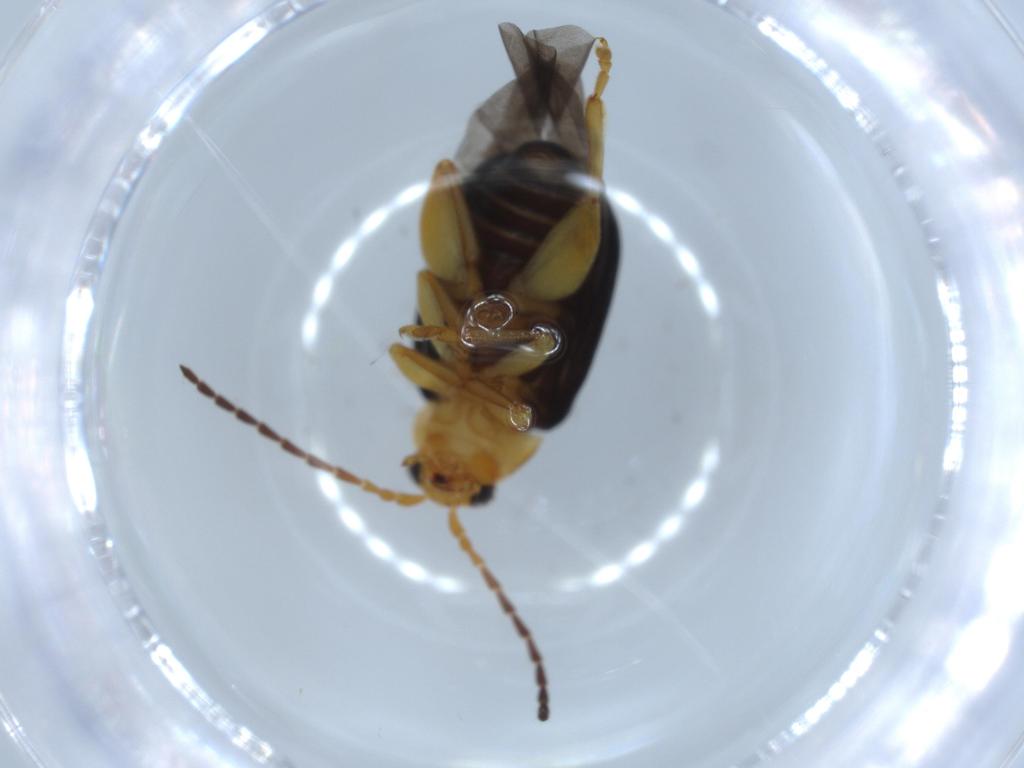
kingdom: Animalia
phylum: Arthropoda
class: Insecta
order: Coleoptera
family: Chrysomelidae
